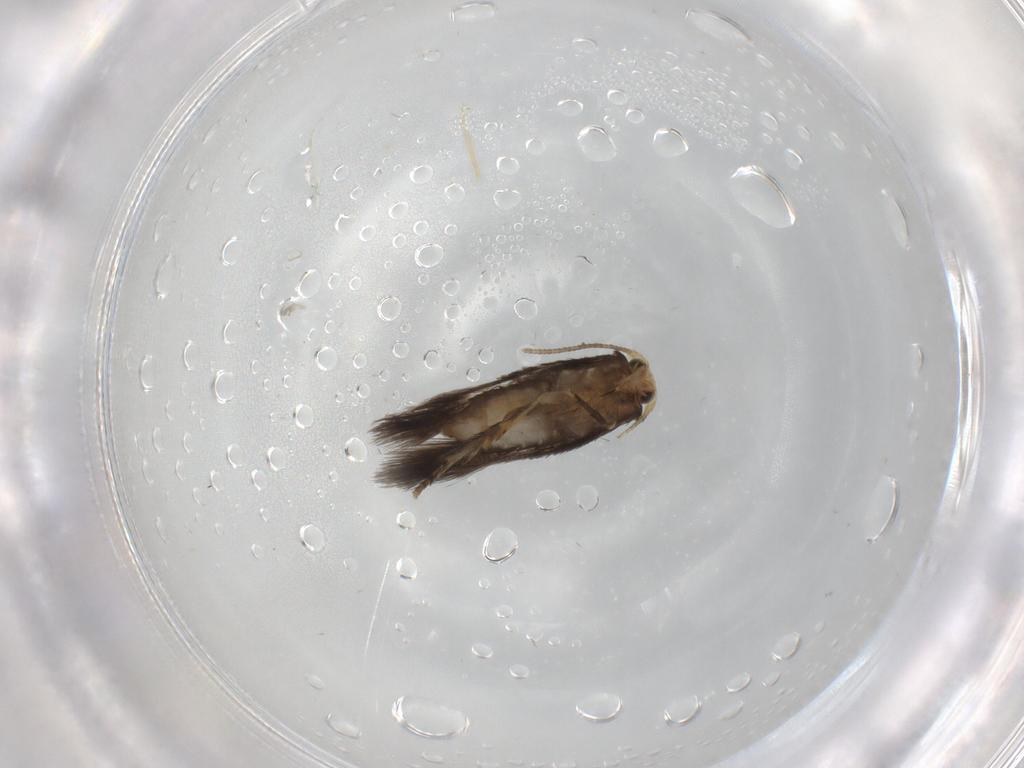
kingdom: Animalia
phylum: Arthropoda
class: Insecta
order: Lepidoptera
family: Nepticulidae
